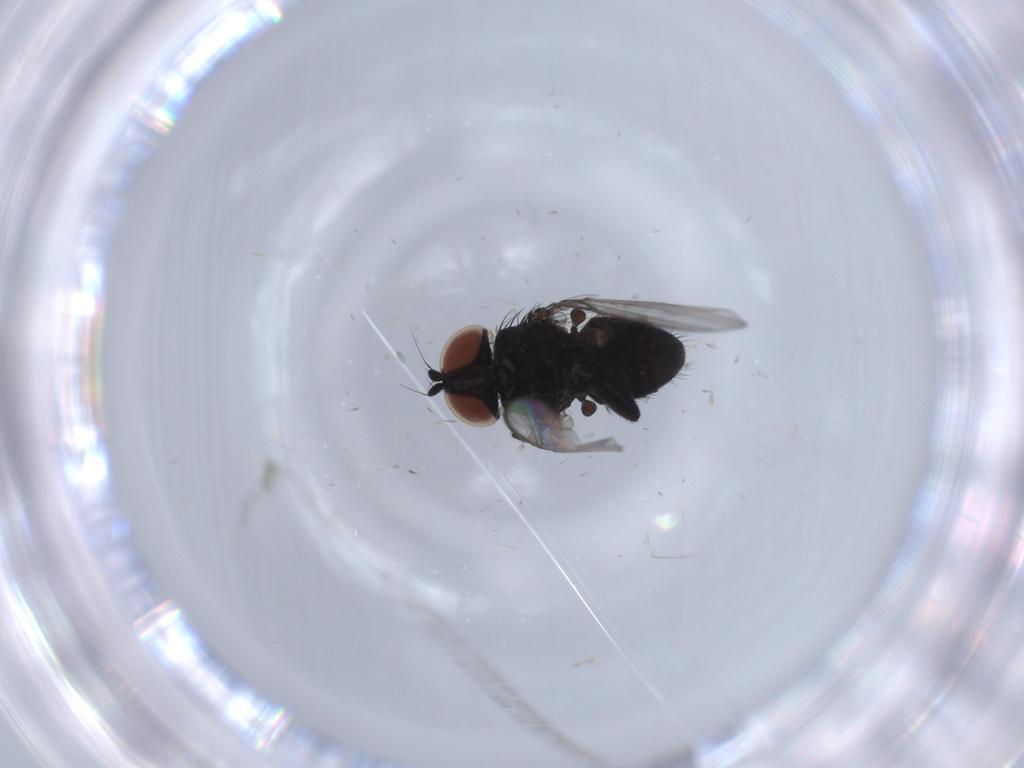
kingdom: Animalia
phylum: Arthropoda
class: Insecta
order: Diptera
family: Milichiidae
